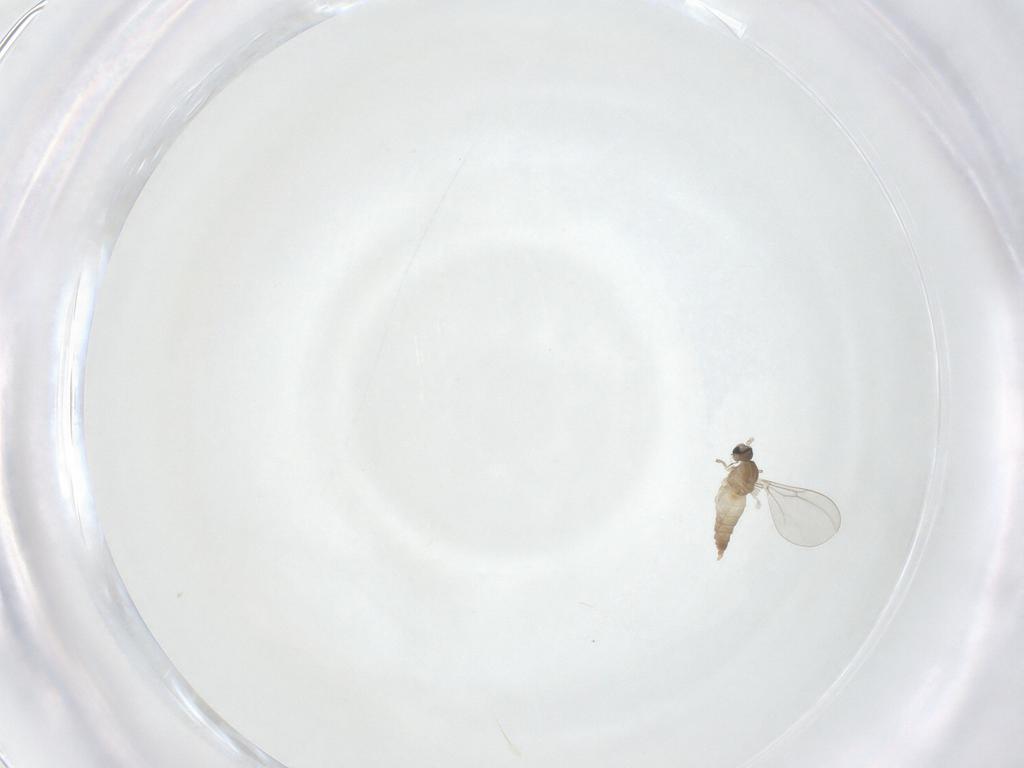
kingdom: Animalia
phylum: Arthropoda
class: Insecta
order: Diptera
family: Cecidomyiidae
